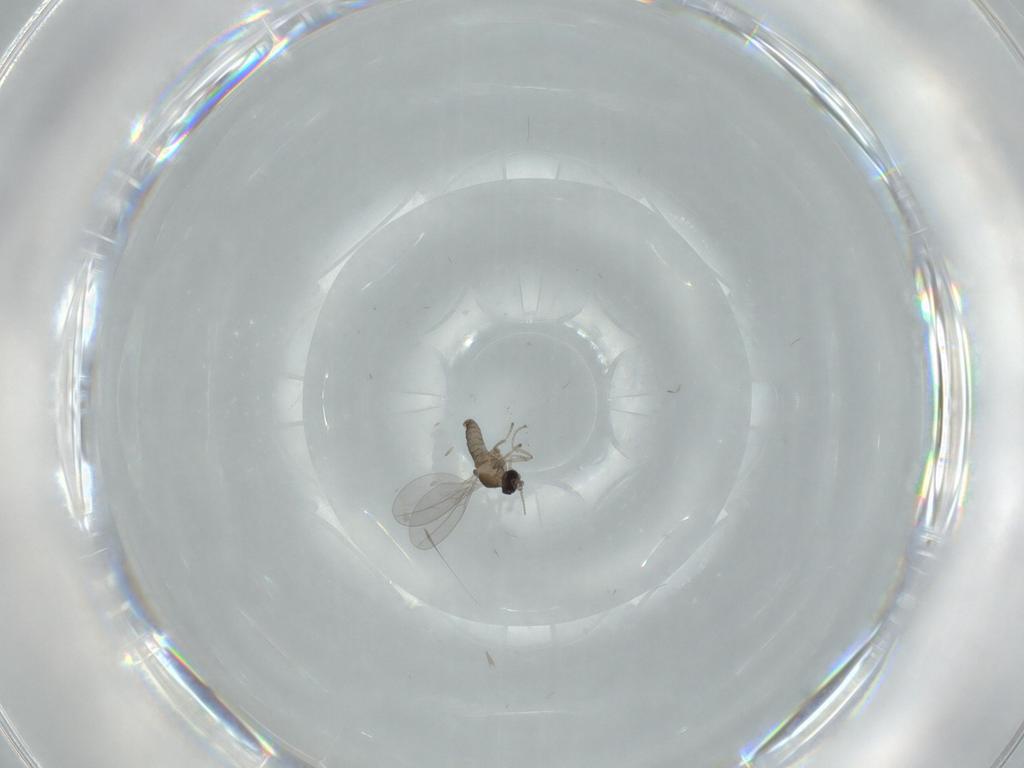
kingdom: Animalia
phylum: Arthropoda
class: Insecta
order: Diptera
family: Cecidomyiidae
